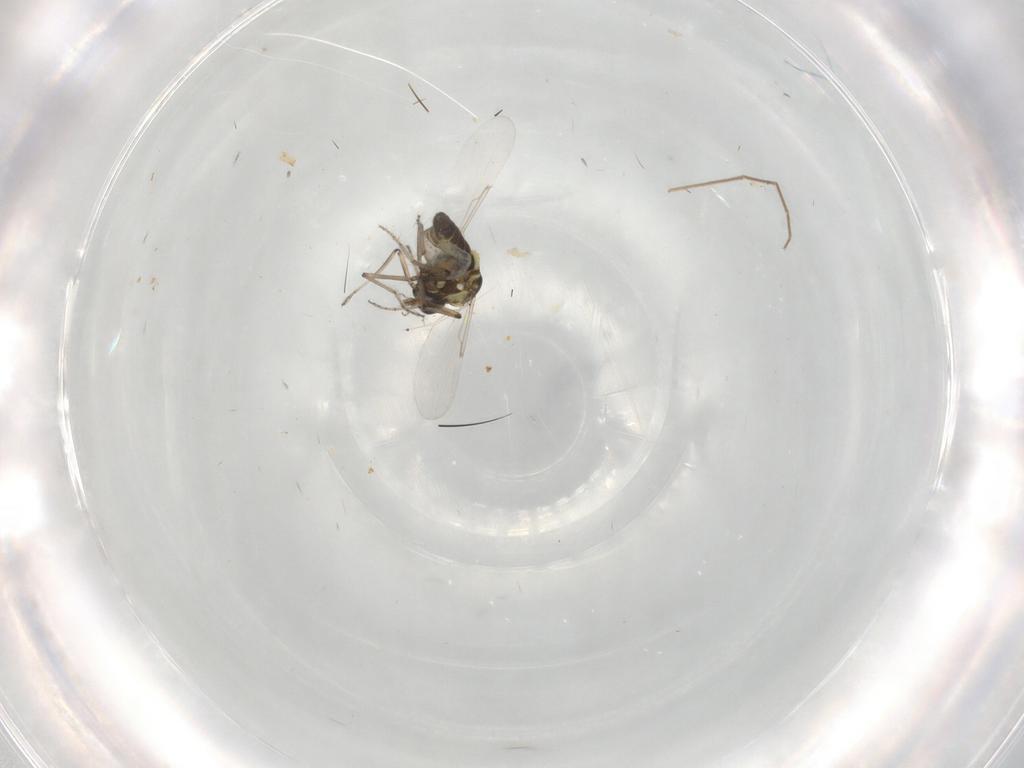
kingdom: Animalia
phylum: Arthropoda
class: Insecta
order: Diptera
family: Ceratopogonidae
